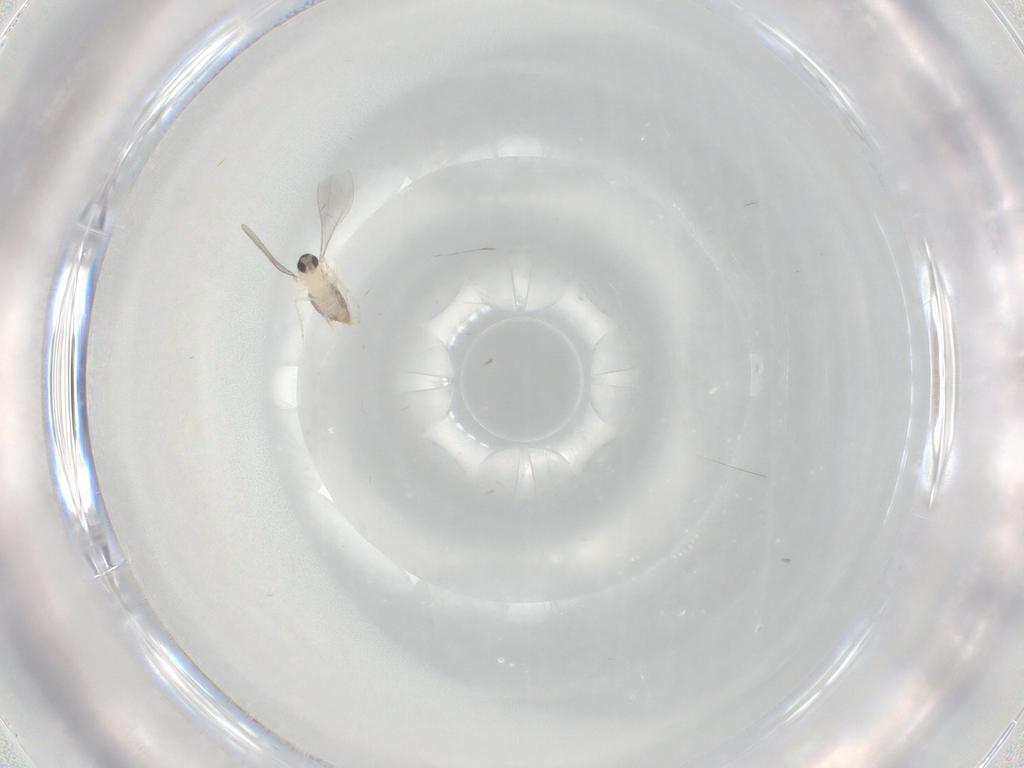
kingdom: Animalia
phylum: Arthropoda
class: Insecta
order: Diptera
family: Cecidomyiidae
